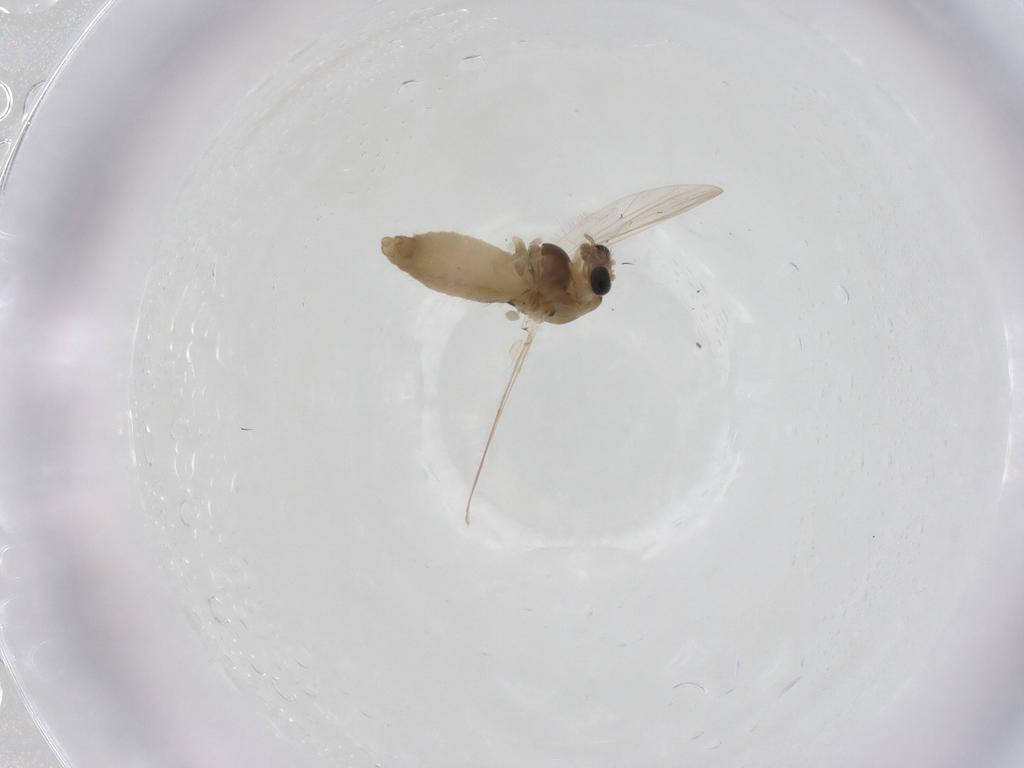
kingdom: Animalia
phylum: Arthropoda
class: Insecta
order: Diptera
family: Chironomidae
